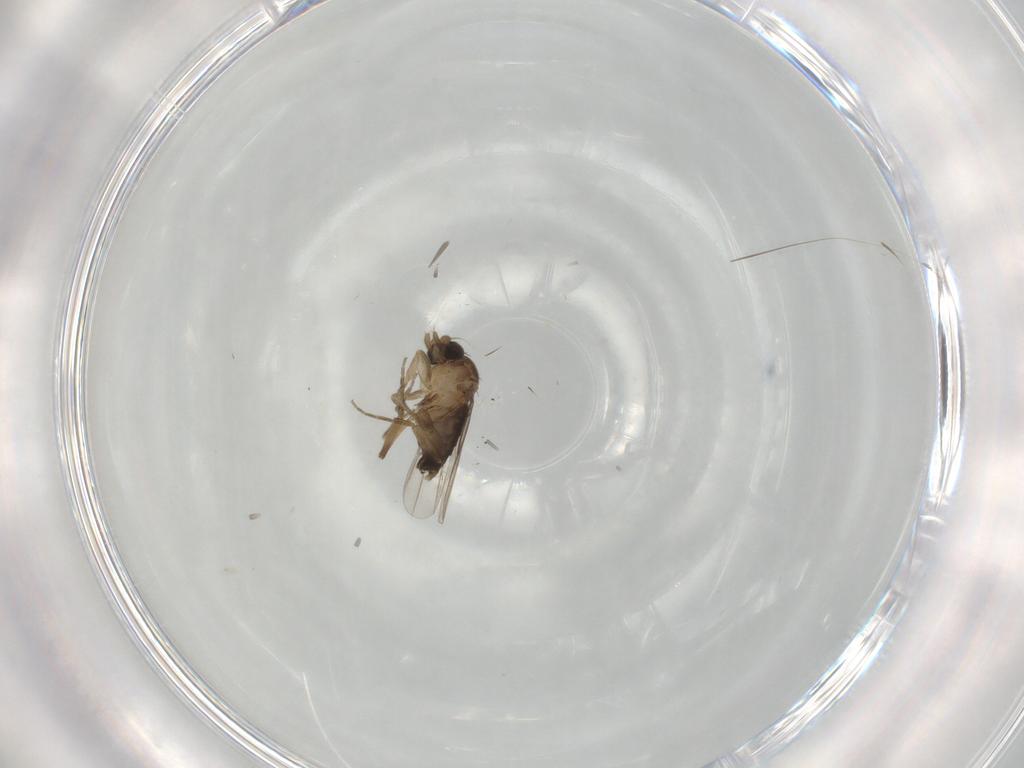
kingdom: Animalia
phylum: Arthropoda
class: Insecta
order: Diptera
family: Phoridae
